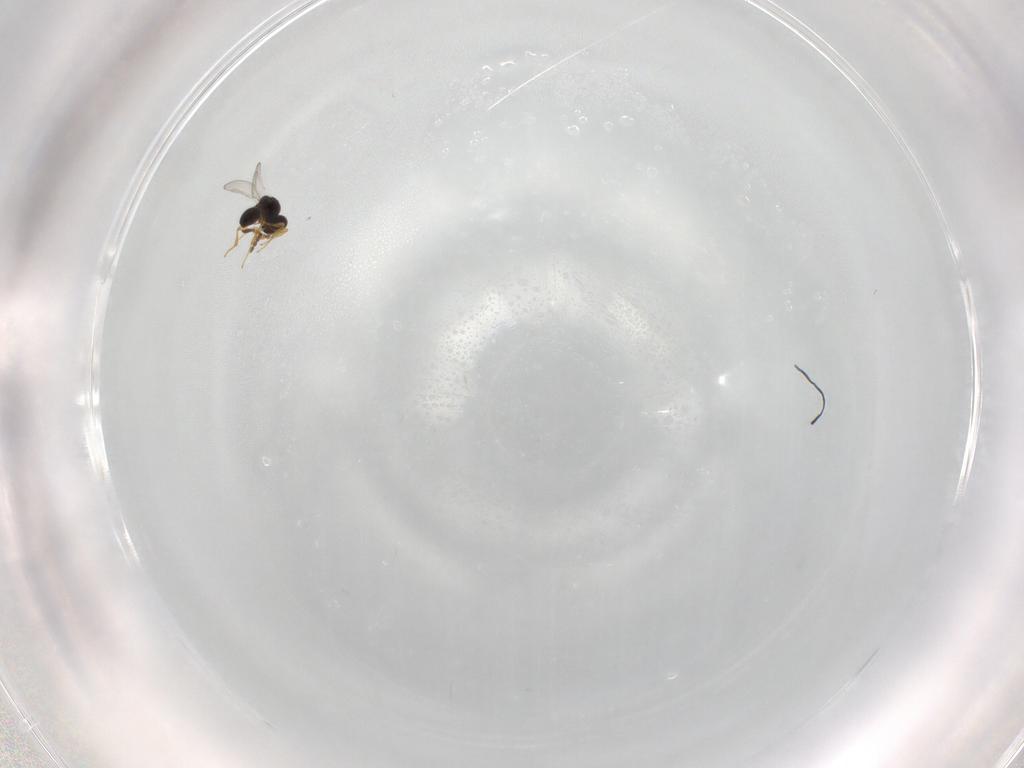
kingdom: Animalia
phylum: Arthropoda
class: Insecta
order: Hymenoptera
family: Platygastridae
